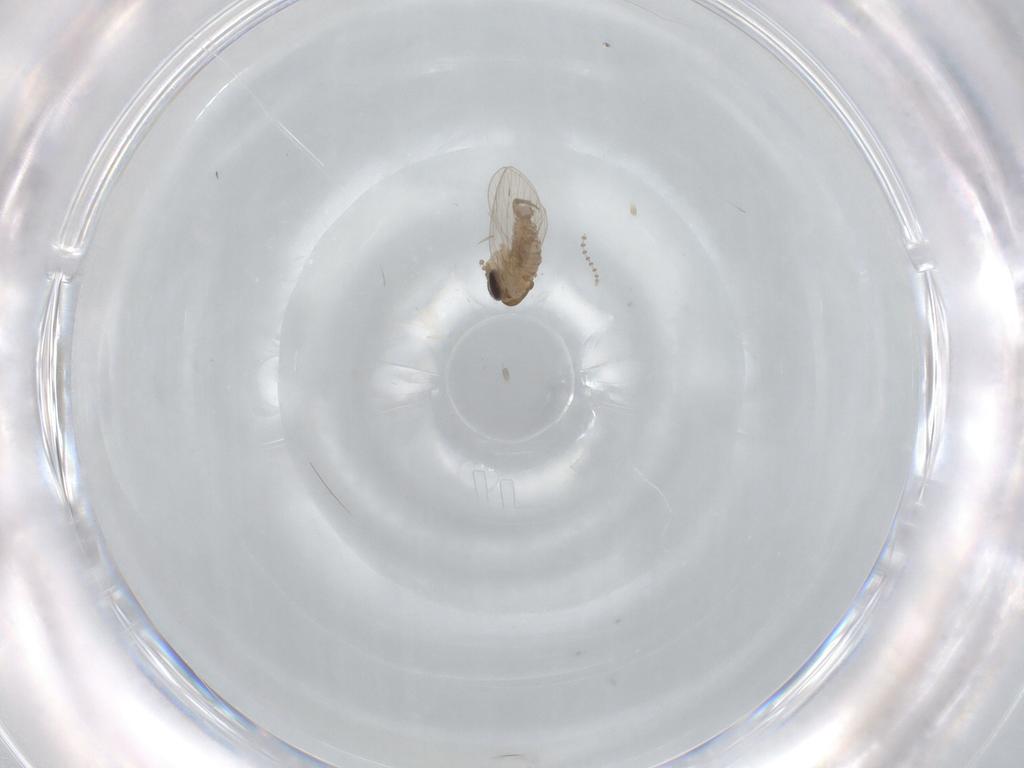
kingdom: Animalia
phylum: Arthropoda
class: Insecta
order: Diptera
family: Psychodidae
